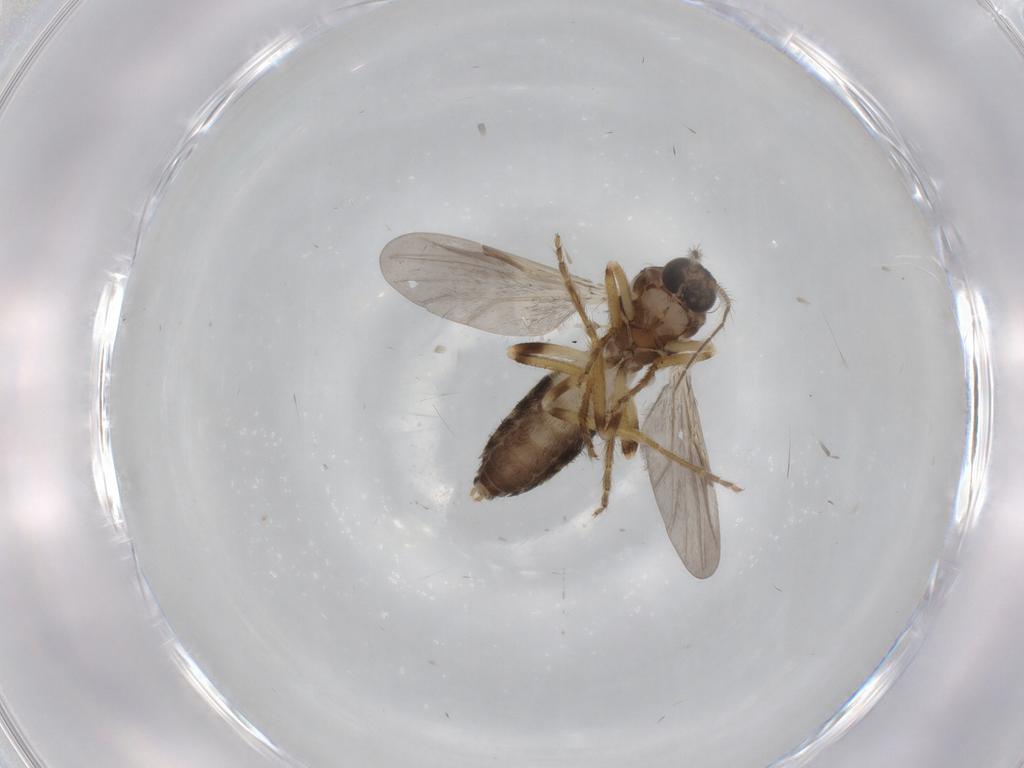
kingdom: Animalia
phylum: Arthropoda
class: Insecta
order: Diptera
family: Ceratopogonidae
